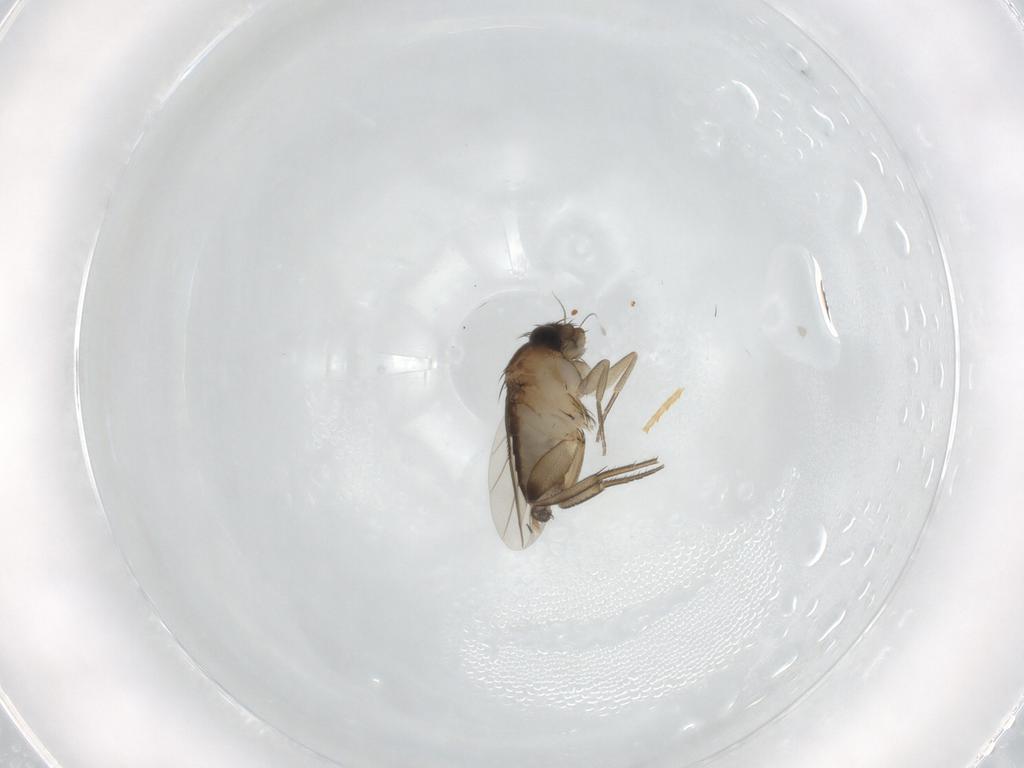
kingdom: Animalia
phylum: Arthropoda
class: Insecta
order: Diptera
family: Phoridae
